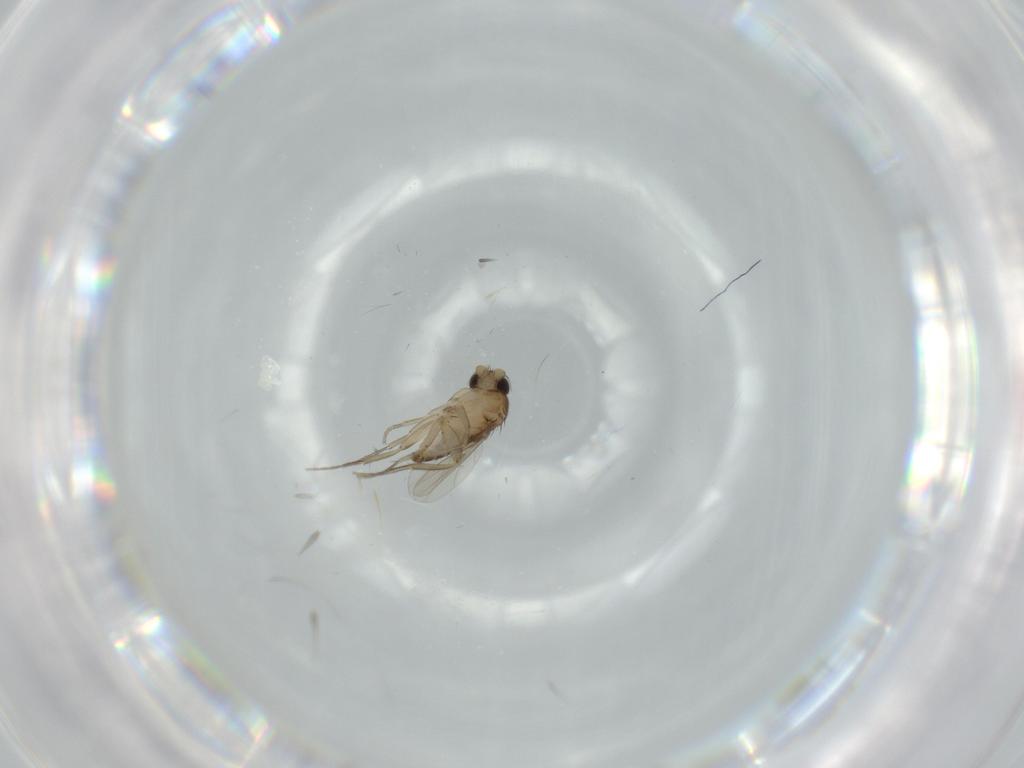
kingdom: Animalia
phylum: Arthropoda
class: Insecta
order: Diptera
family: Phoridae
